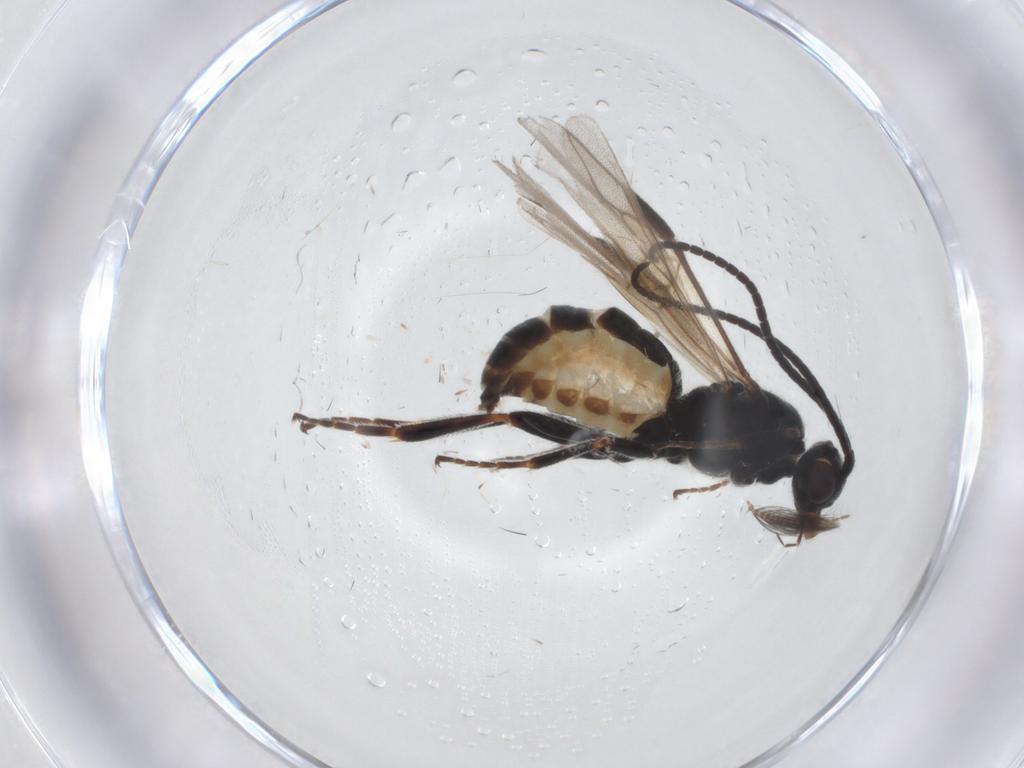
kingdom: Animalia
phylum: Arthropoda
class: Insecta
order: Hymenoptera
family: Braconidae
